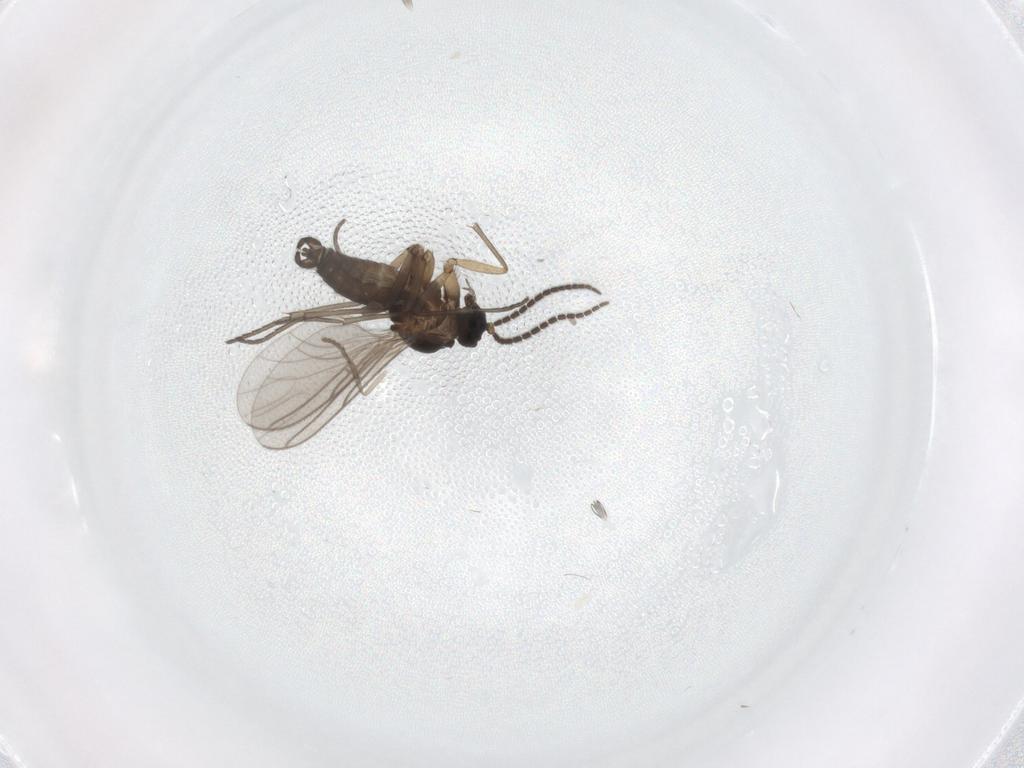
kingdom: Animalia
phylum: Arthropoda
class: Insecta
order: Diptera
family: Sciaridae
